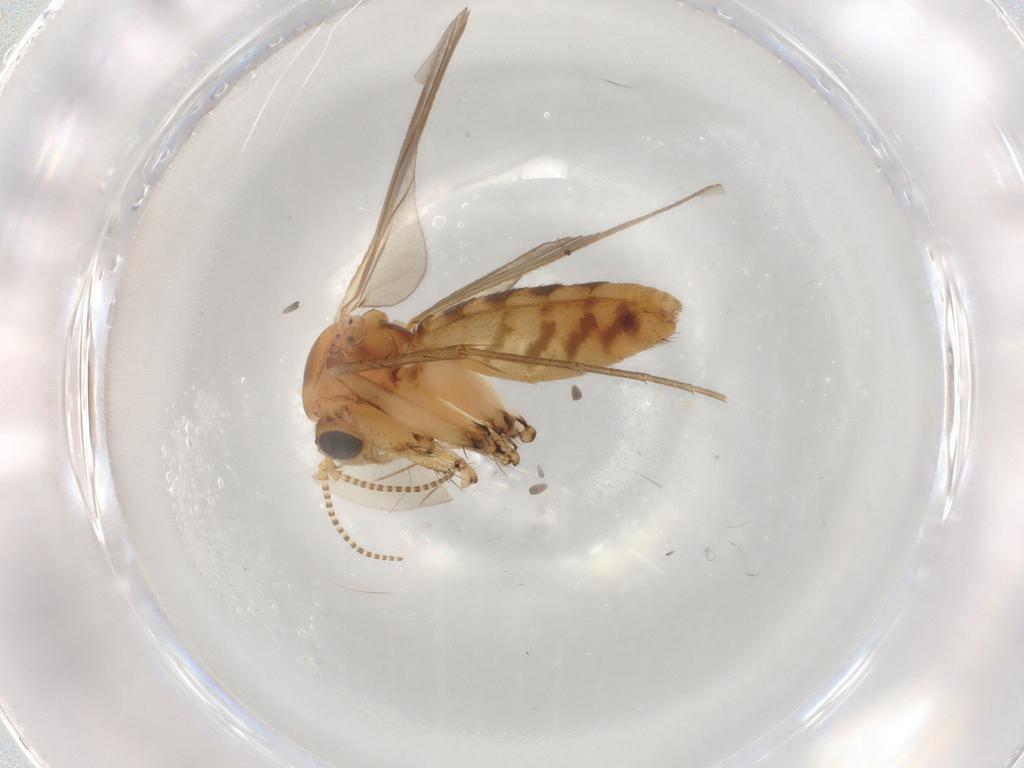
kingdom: Animalia
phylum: Arthropoda
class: Insecta
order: Diptera
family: Mycetophilidae
